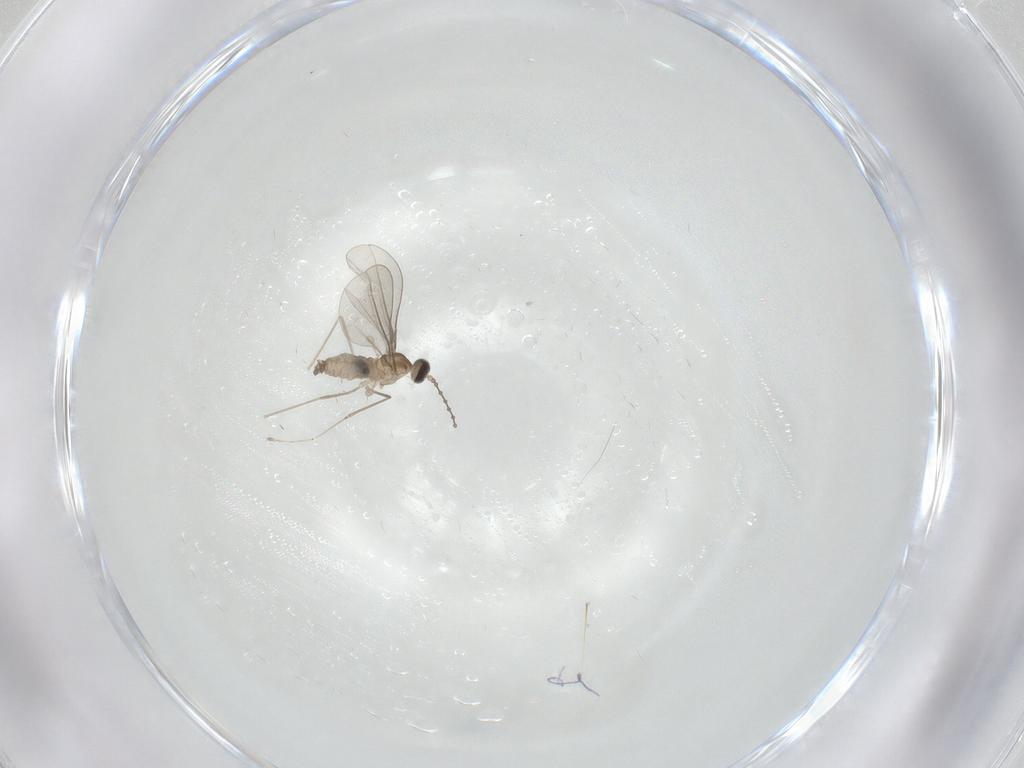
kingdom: Animalia
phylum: Arthropoda
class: Insecta
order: Diptera
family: Cecidomyiidae
